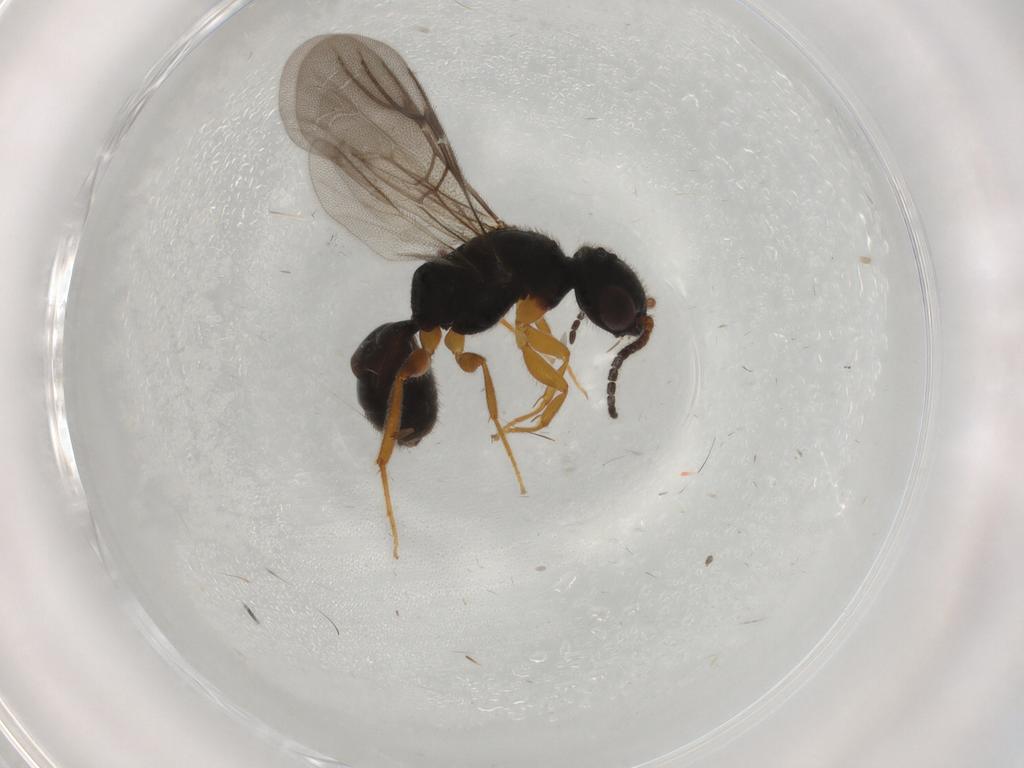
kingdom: Animalia
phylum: Arthropoda
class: Insecta
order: Hymenoptera
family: Bethylidae
